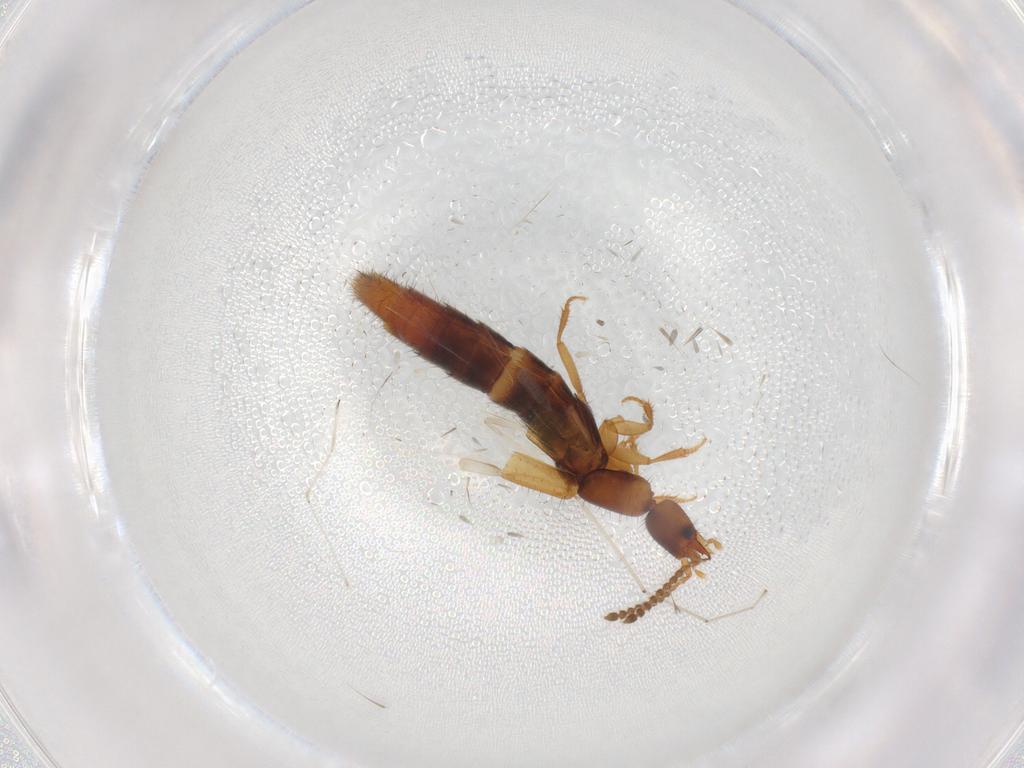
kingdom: Animalia
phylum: Arthropoda
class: Insecta
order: Coleoptera
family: Staphylinidae
